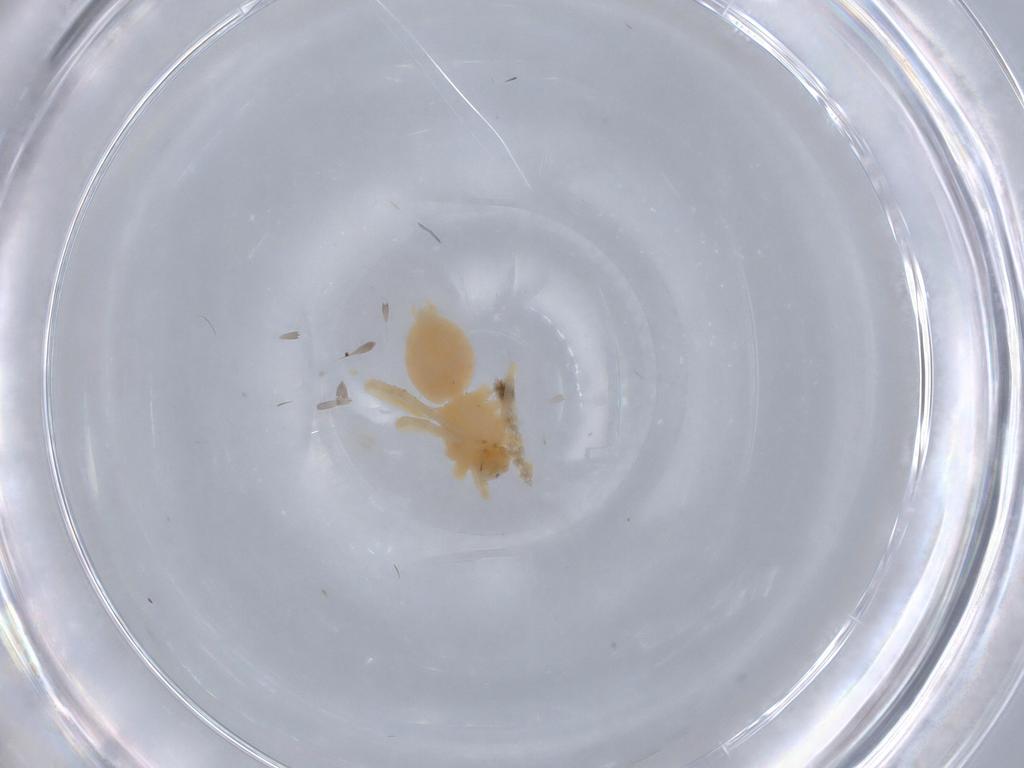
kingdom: Animalia
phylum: Arthropoda
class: Arachnida
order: Araneae
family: Anyphaenidae
